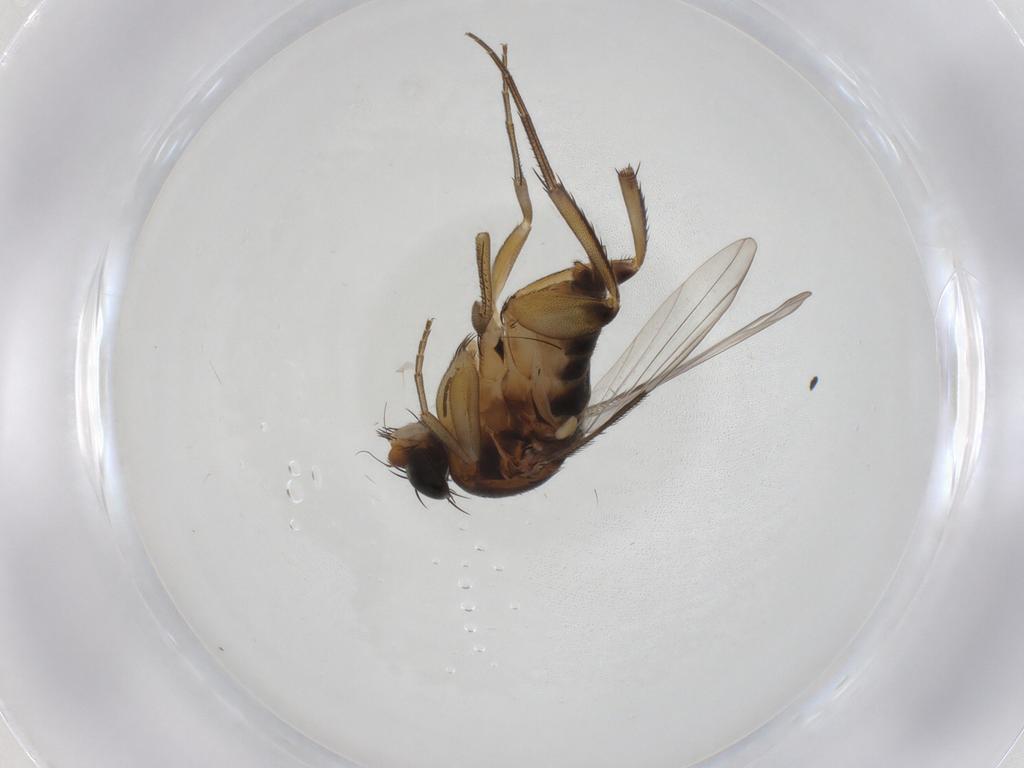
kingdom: Animalia
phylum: Arthropoda
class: Insecta
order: Diptera
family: Phoridae
